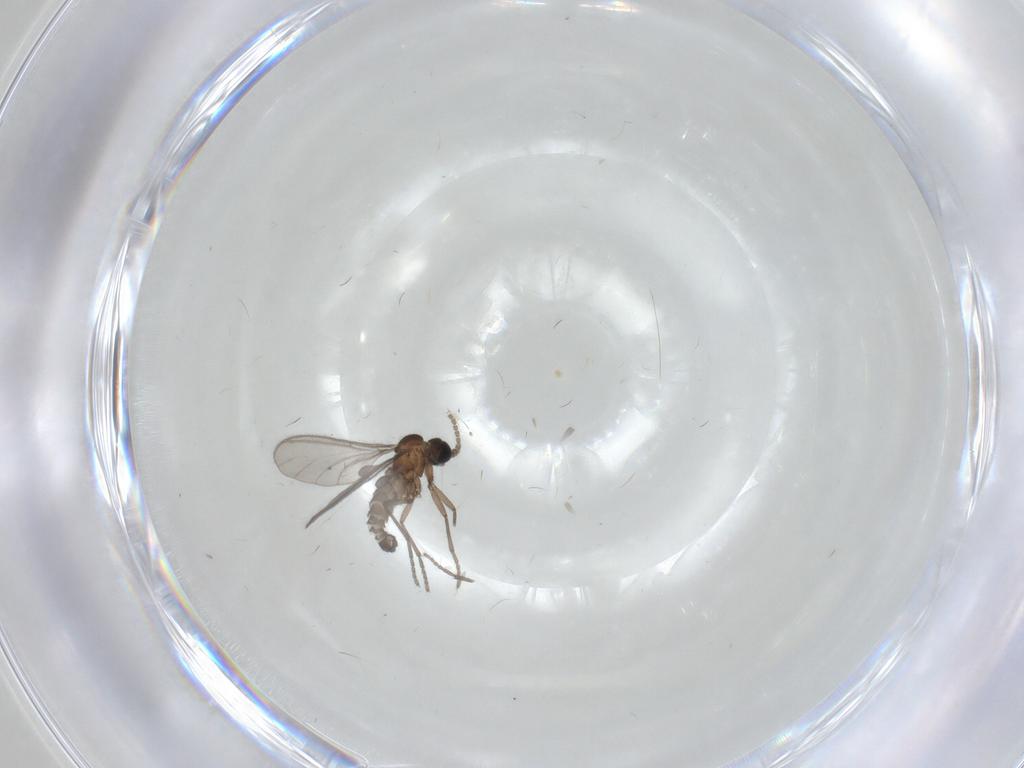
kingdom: Animalia
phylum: Arthropoda
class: Insecta
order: Diptera
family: Sciaridae
